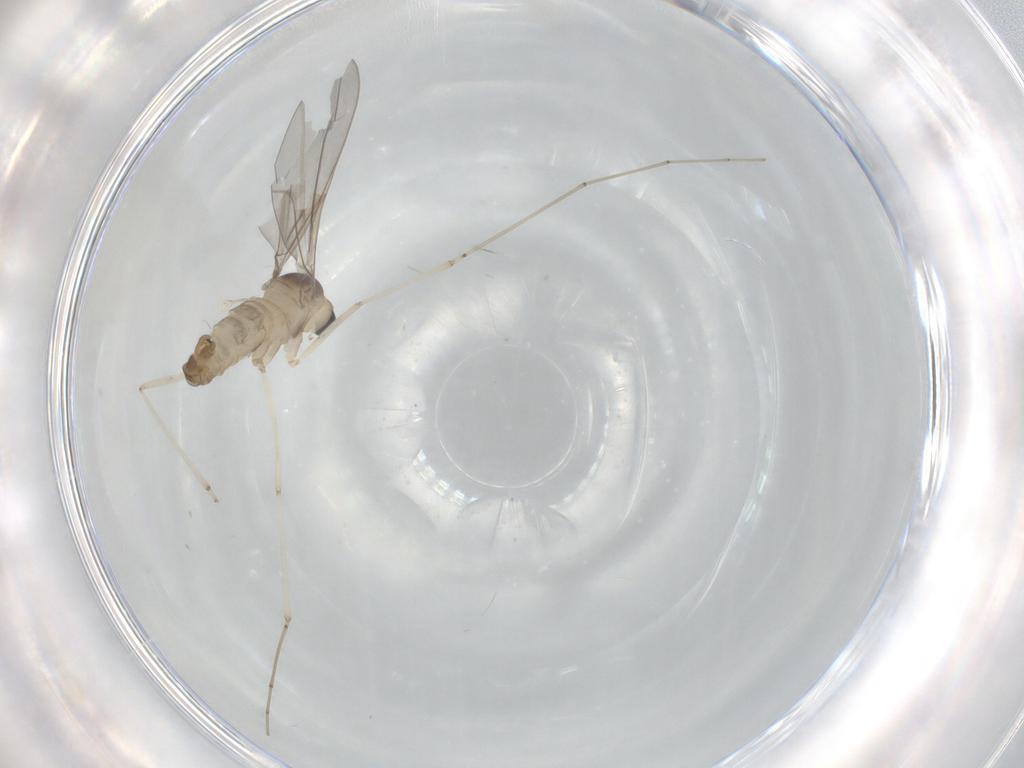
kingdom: Animalia
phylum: Arthropoda
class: Insecta
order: Diptera
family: Cecidomyiidae
